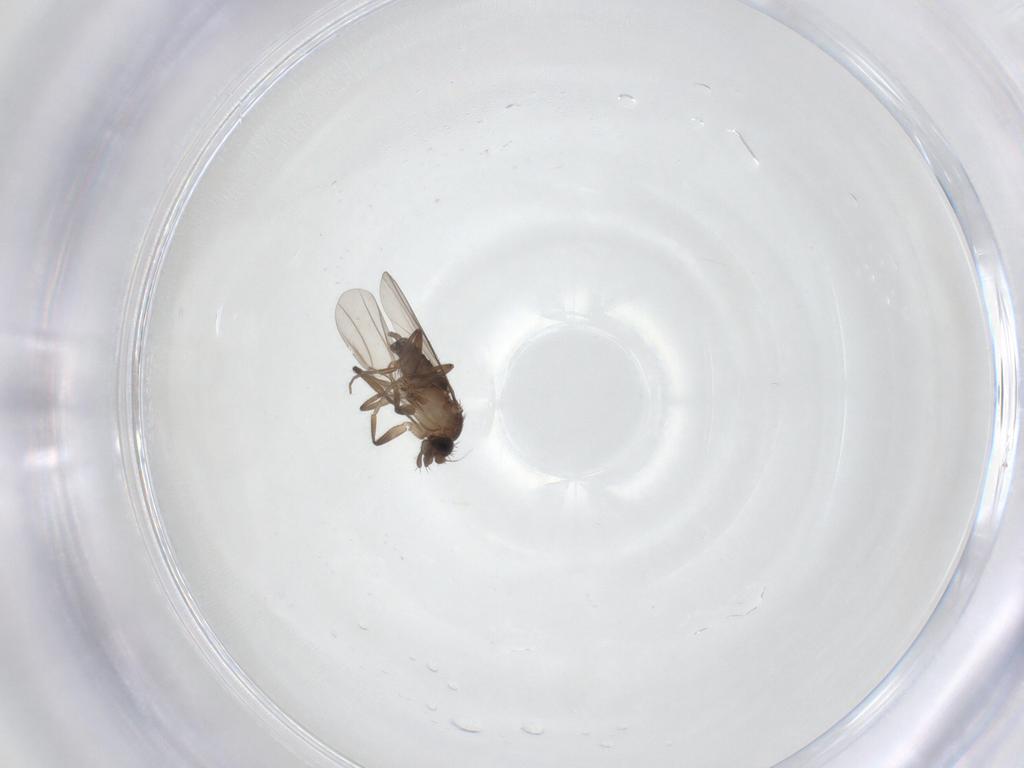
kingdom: Animalia
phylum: Arthropoda
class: Insecta
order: Diptera
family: Phoridae
